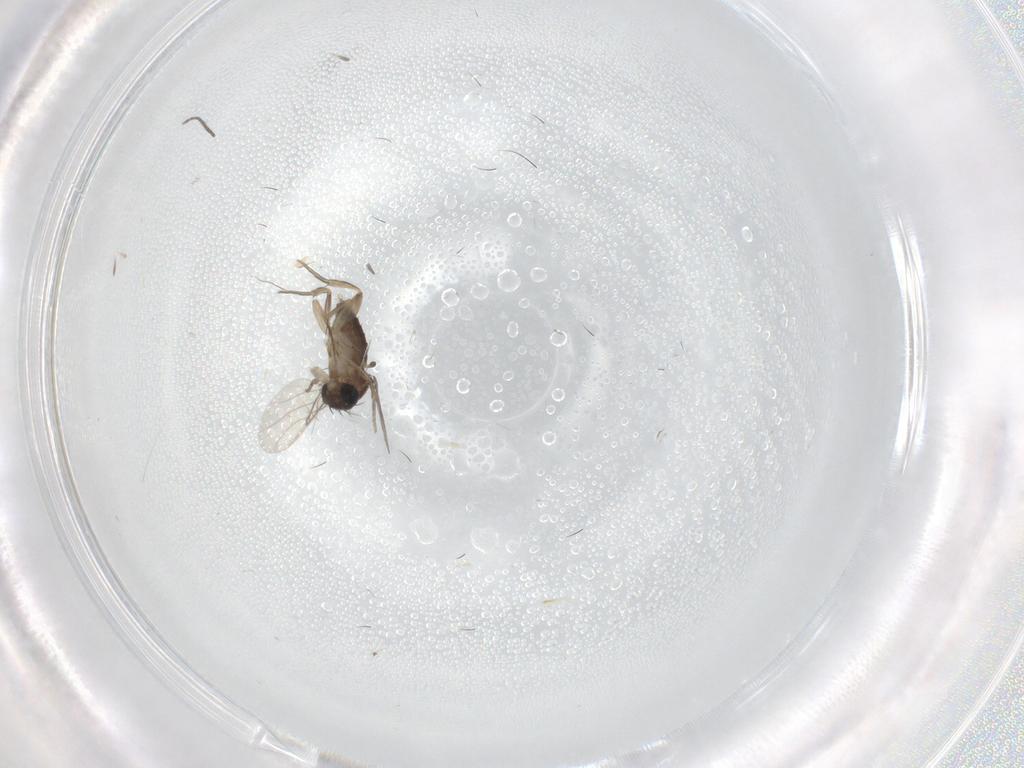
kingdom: Animalia
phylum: Arthropoda
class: Insecta
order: Diptera
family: Phoridae
